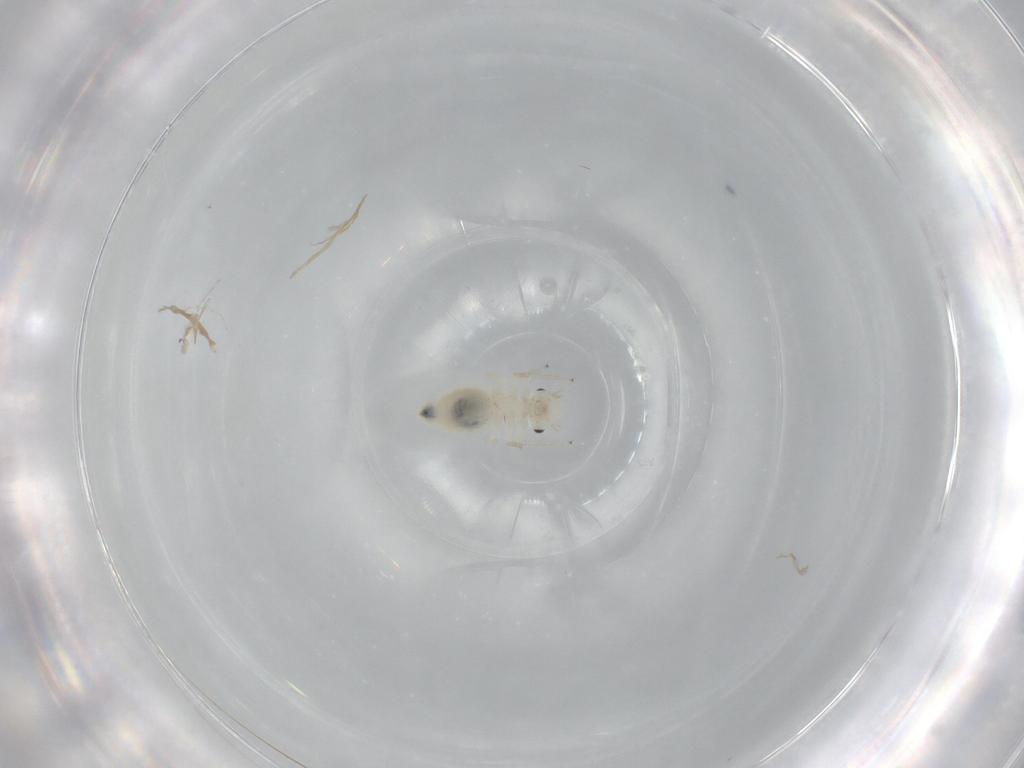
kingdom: Animalia
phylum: Arthropoda
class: Insecta
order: Psocodea
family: Caeciliusidae
